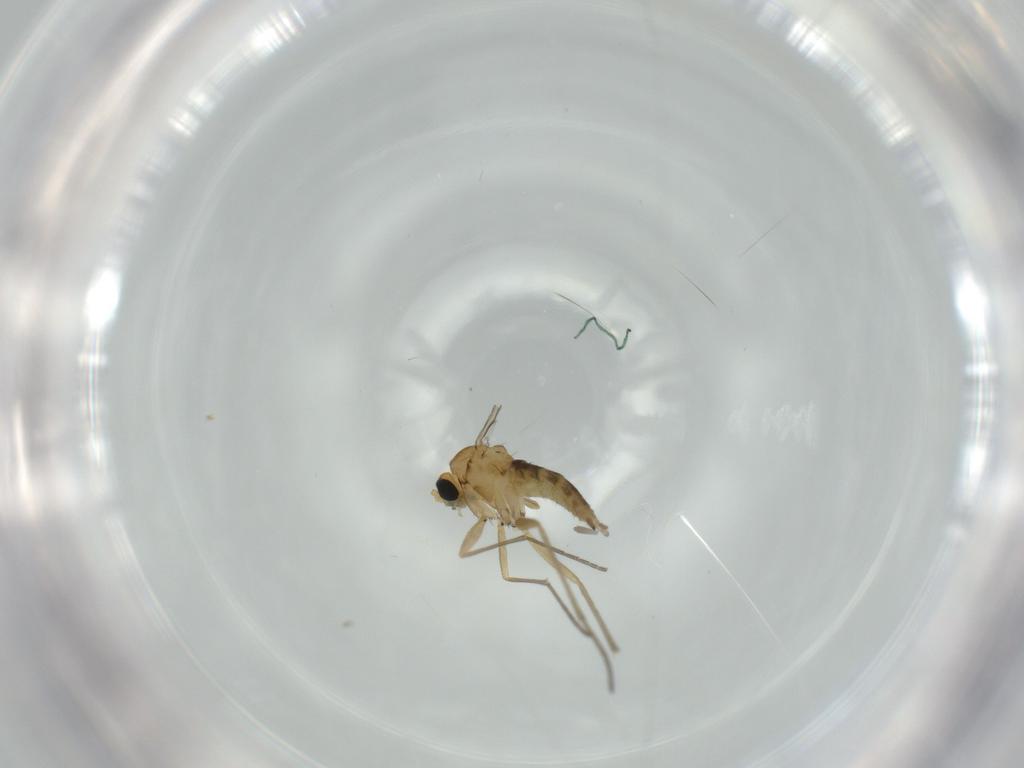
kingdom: Animalia
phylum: Arthropoda
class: Insecta
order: Diptera
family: Sciaridae
